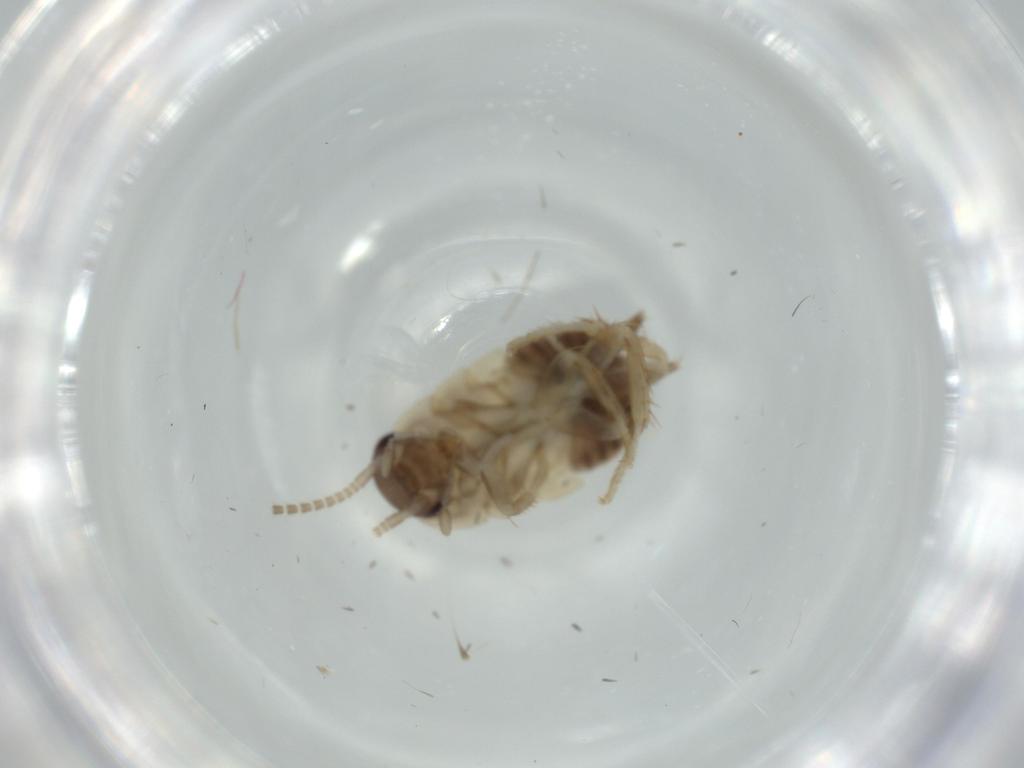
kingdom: Animalia
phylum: Arthropoda
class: Insecta
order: Blattodea
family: Ectobiidae
